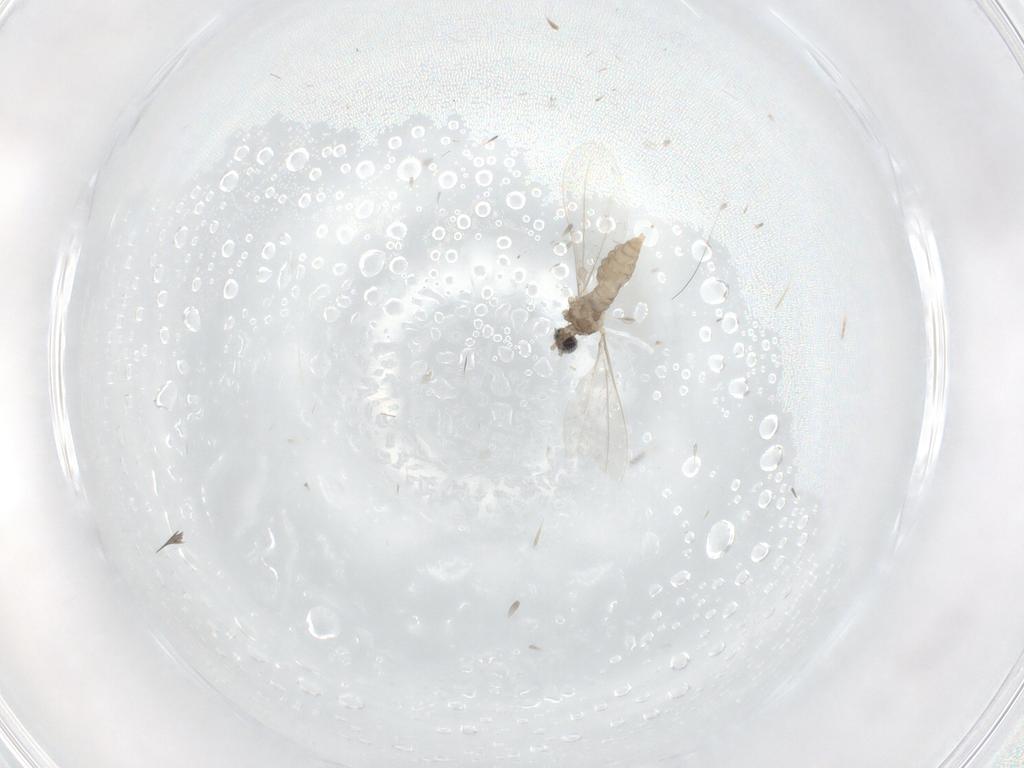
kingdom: Animalia
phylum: Arthropoda
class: Insecta
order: Diptera
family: Cecidomyiidae
